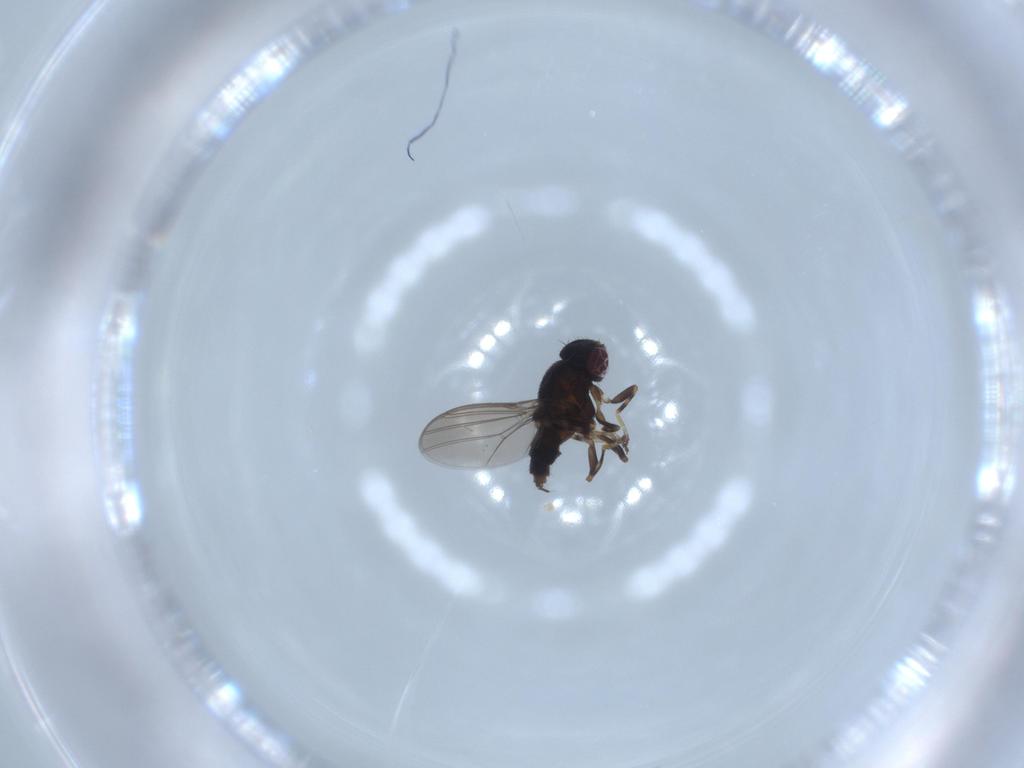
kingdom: Animalia
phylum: Arthropoda
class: Insecta
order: Diptera
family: Chloropidae
